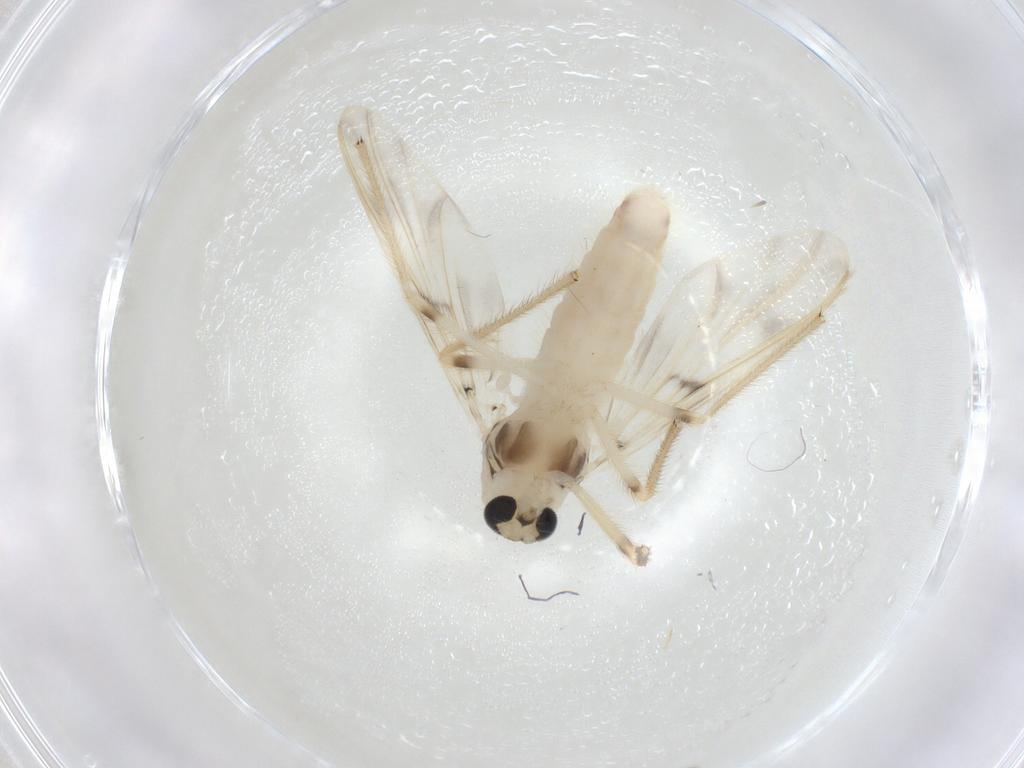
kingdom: Animalia
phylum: Arthropoda
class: Insecta
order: Diptera
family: Chironomidae
